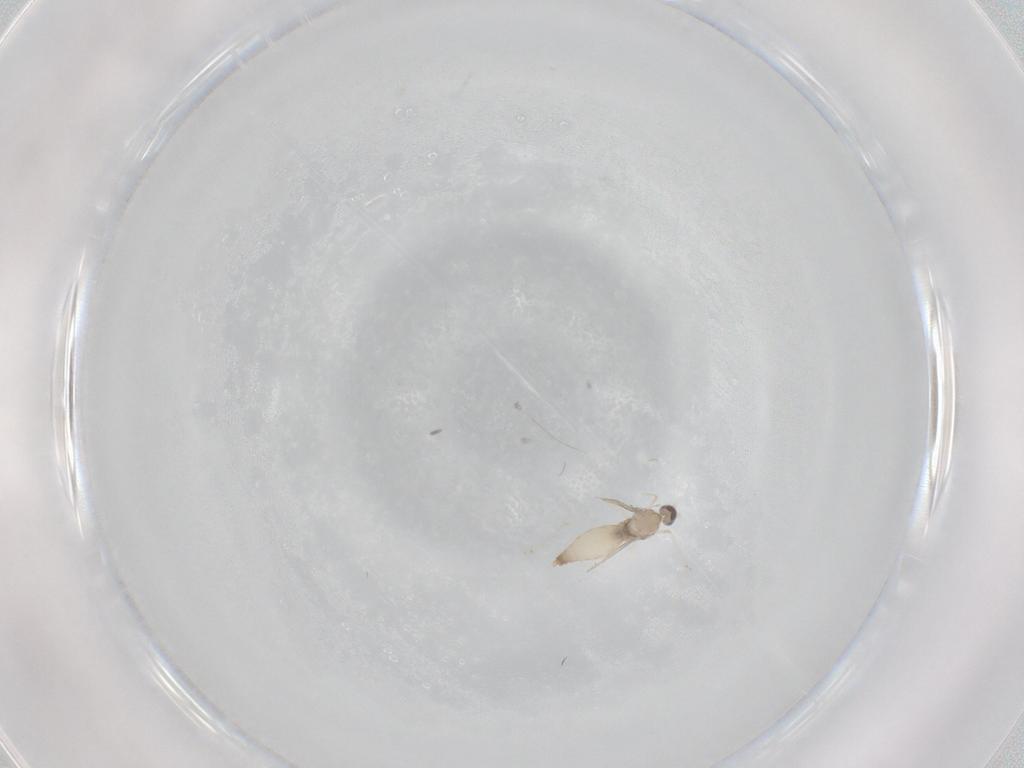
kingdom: Animalia
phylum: Arthropoda
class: Insecta
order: Diptera
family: Chironomidae
